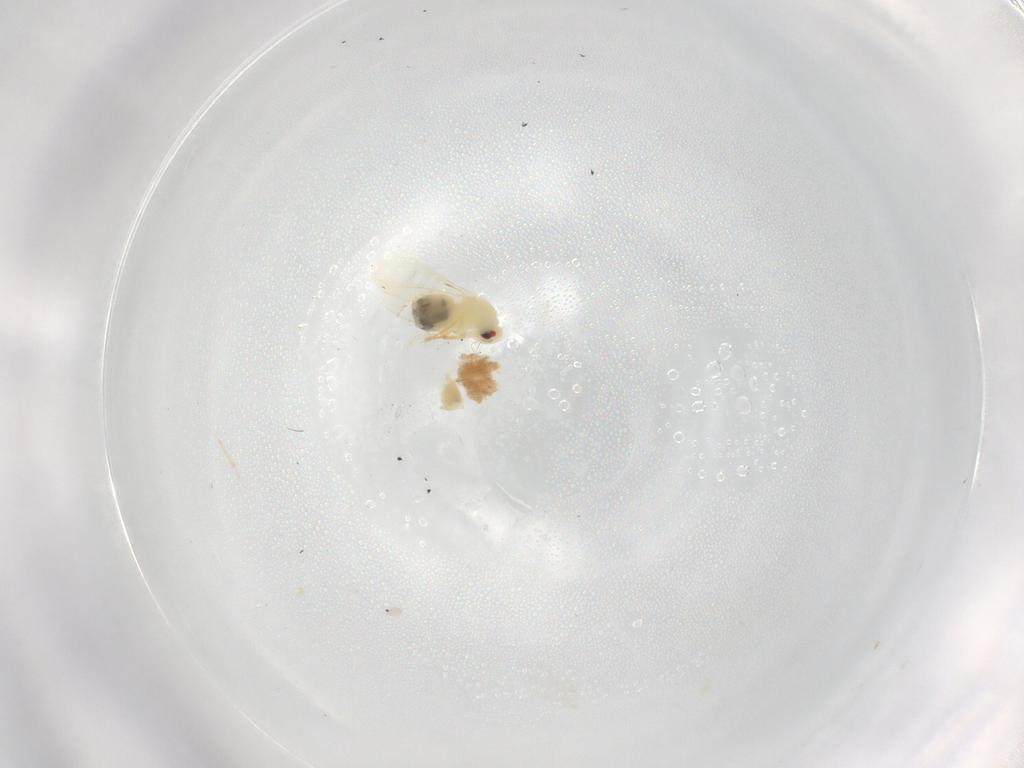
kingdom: Animalia
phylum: Arthropoda
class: Insecta
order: Hemiptera
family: Aleyrodidae
